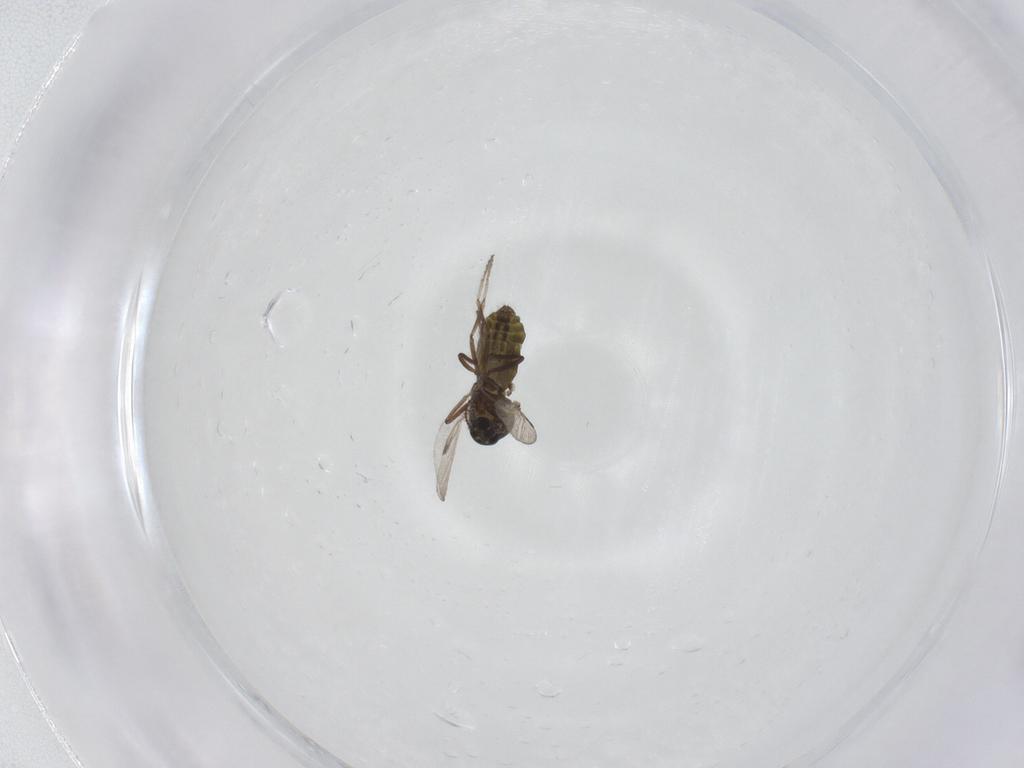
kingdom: Animalia
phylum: Arthropoda
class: Insecta
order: Diptera
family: Ceratopogonidae
